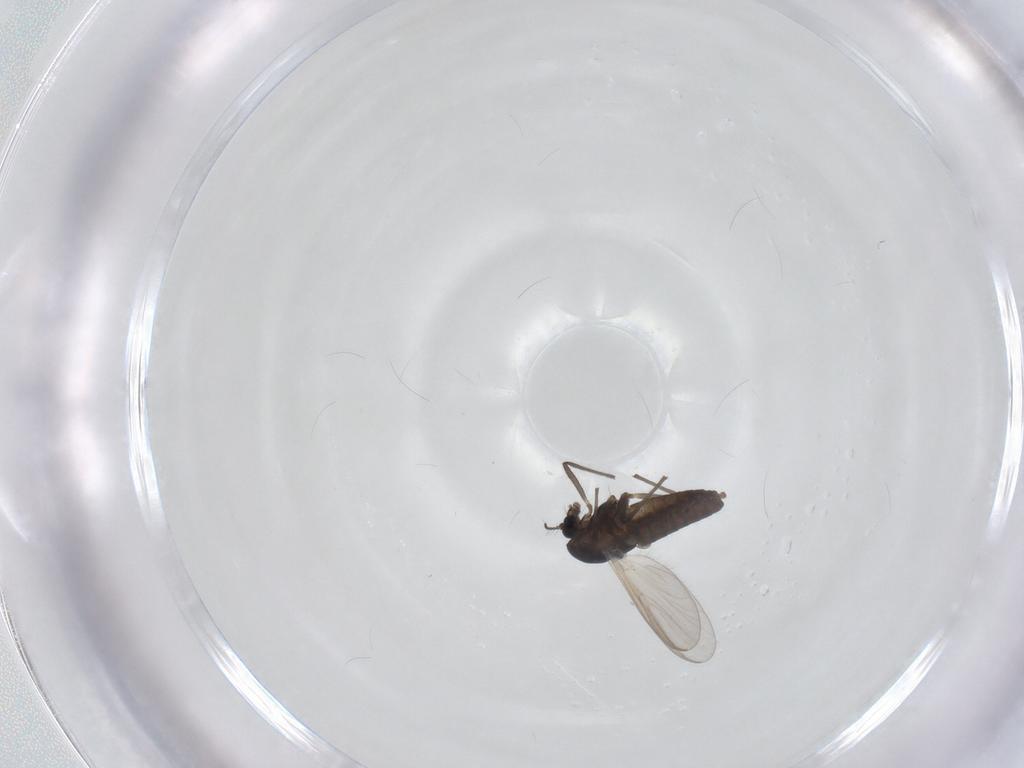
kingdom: Animalia
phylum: Arthropoda
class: Insecta
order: Diptera
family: Chironomidae
